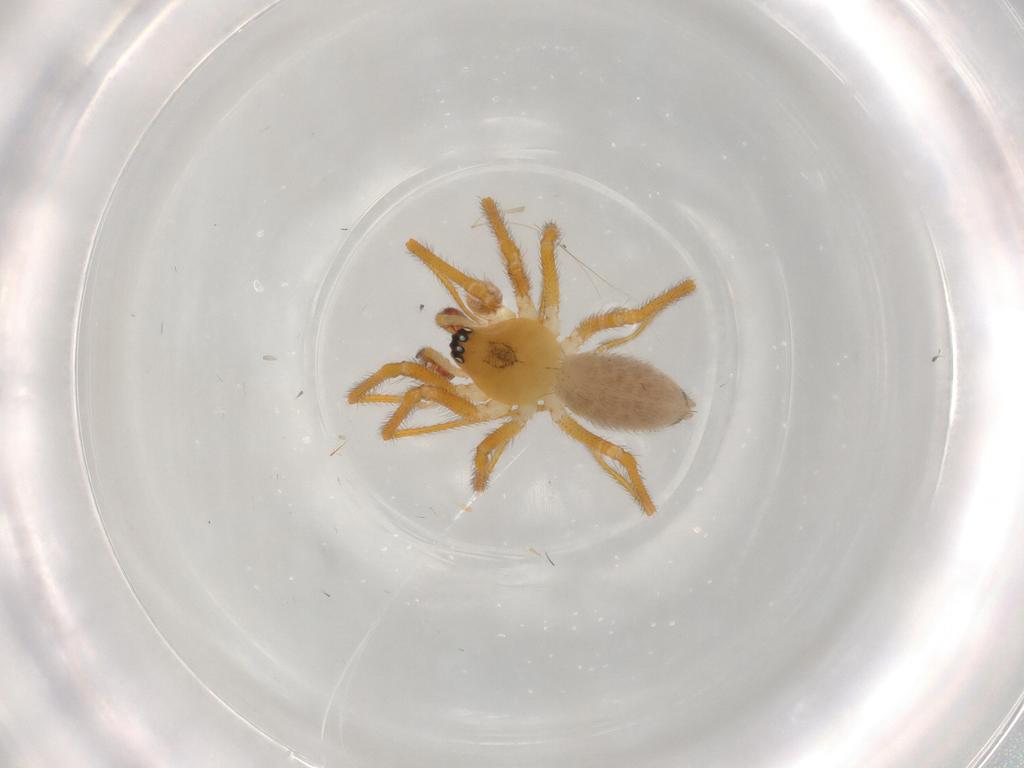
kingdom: Animalia
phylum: Arthropoda
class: Arachnida
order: Araneae
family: Linyphiidae
